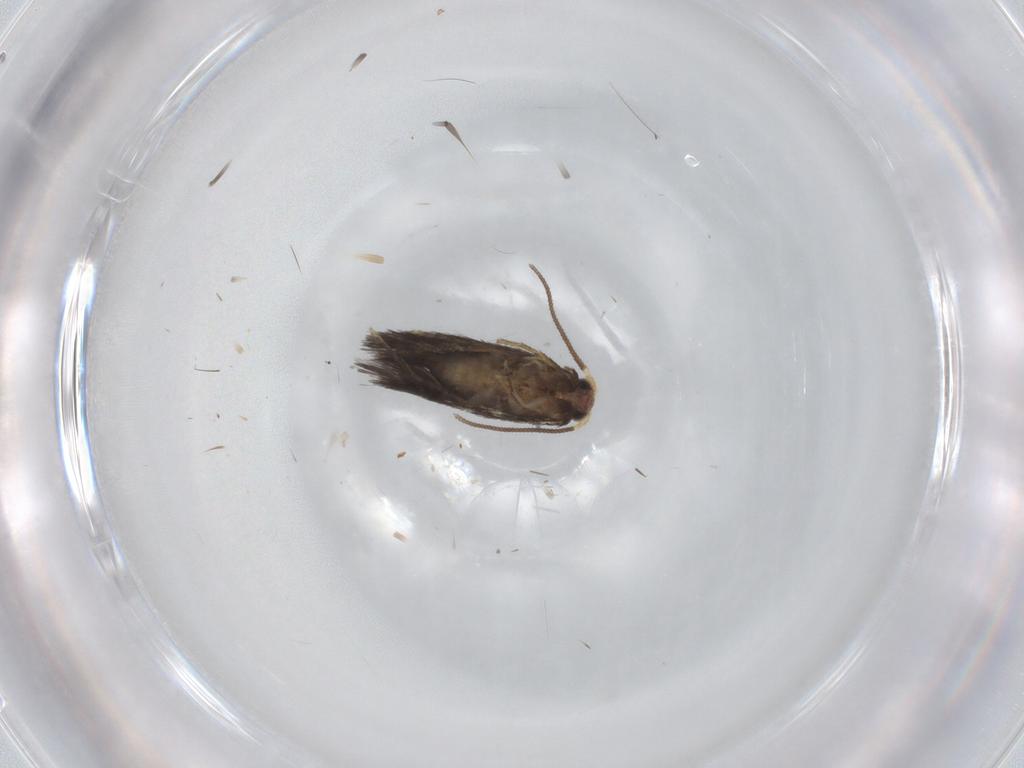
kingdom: Animalia
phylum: Arthropoda
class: Insecta
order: Lepidoptera
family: Nepticulidae
